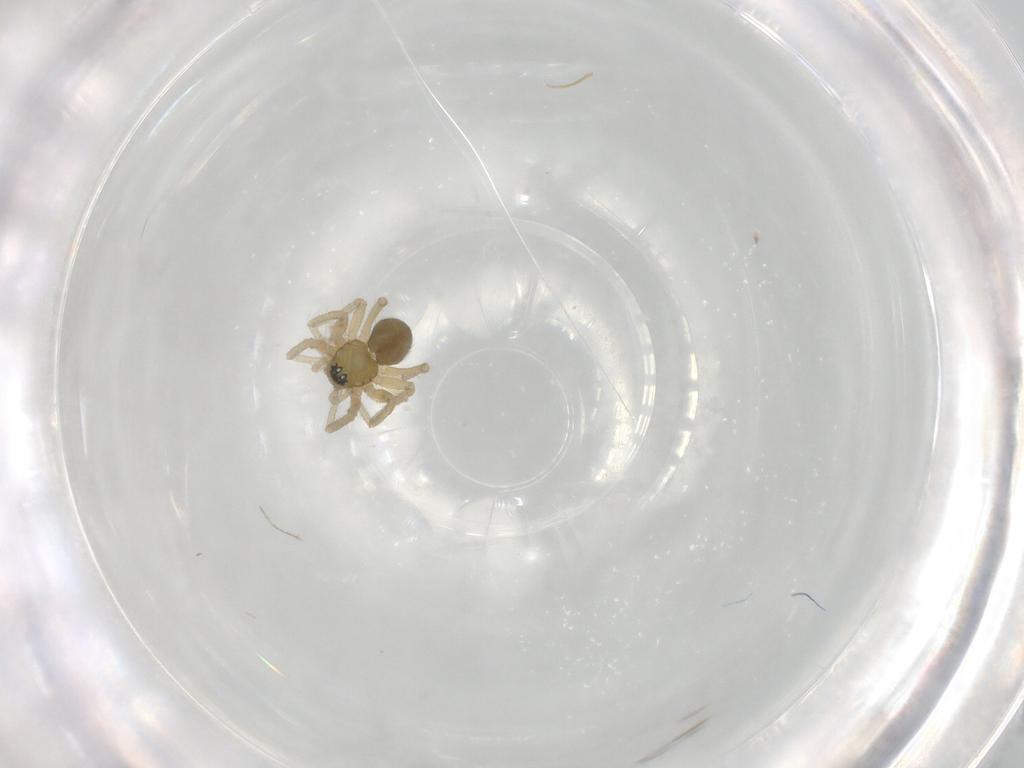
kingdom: Animalia
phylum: Arthropoda
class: Arachnida
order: Araneae
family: Linyphiidae
